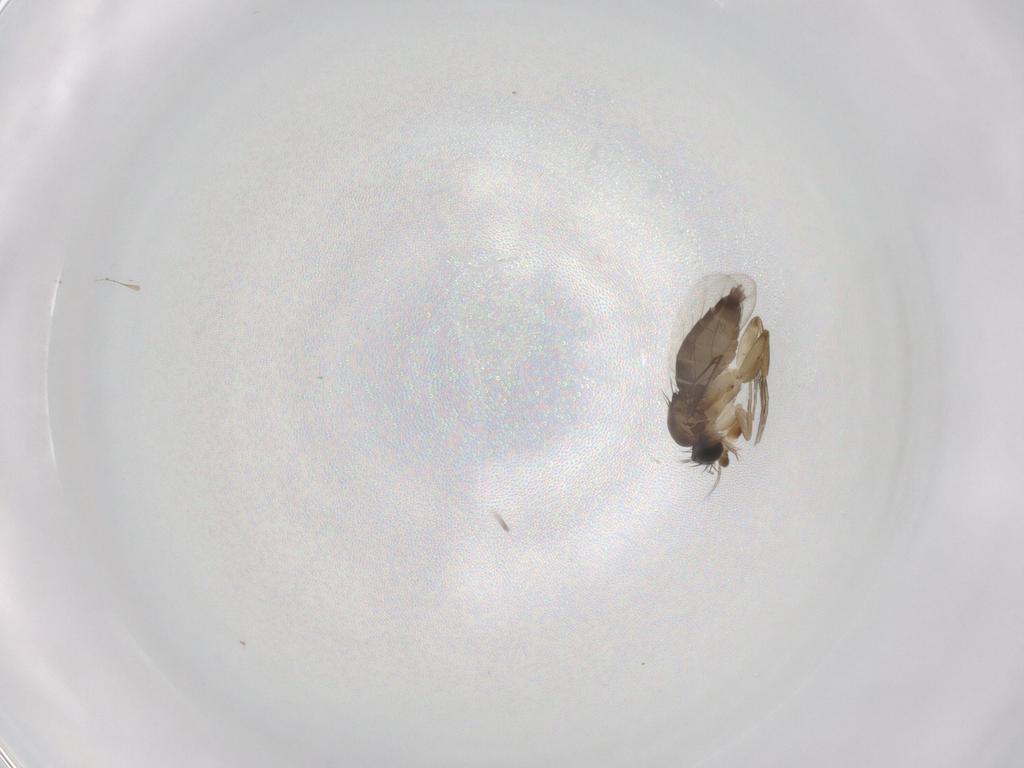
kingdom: Animalia
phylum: Arthropoda
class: Insecta
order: Diptera
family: Phoridae
